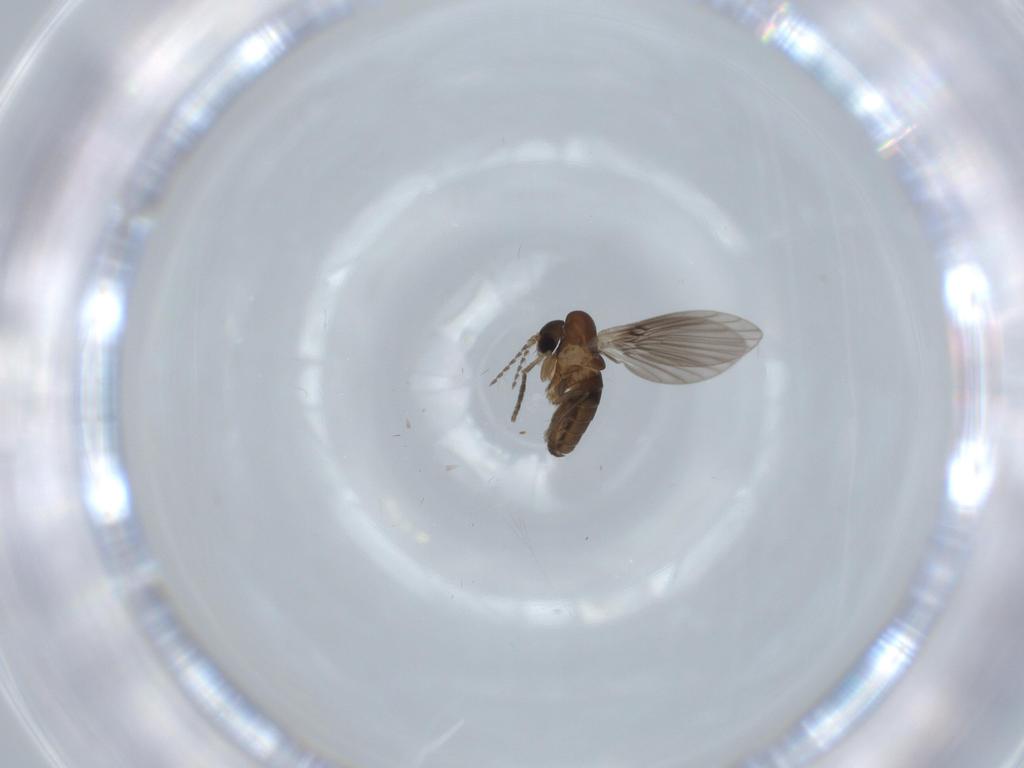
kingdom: Animalia
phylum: Arthropoda
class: Insecta
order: Diptera
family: Psychodidae
